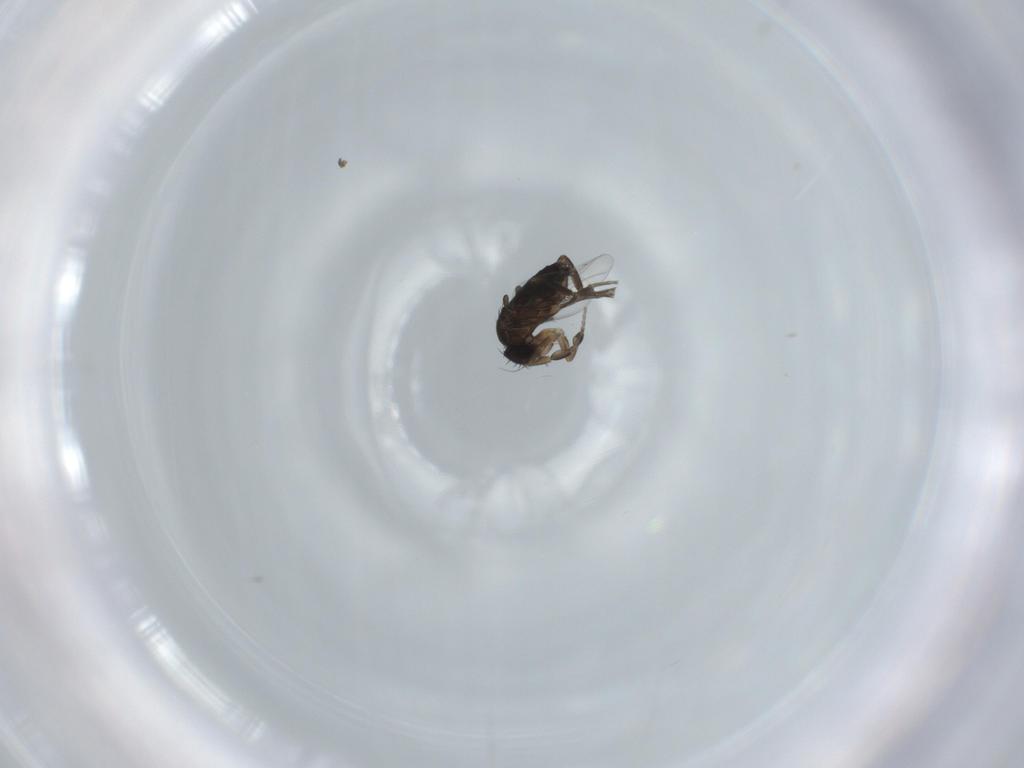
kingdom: Animalia
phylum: Arthropoda
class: Insecta
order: Diptera
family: Phoridae
